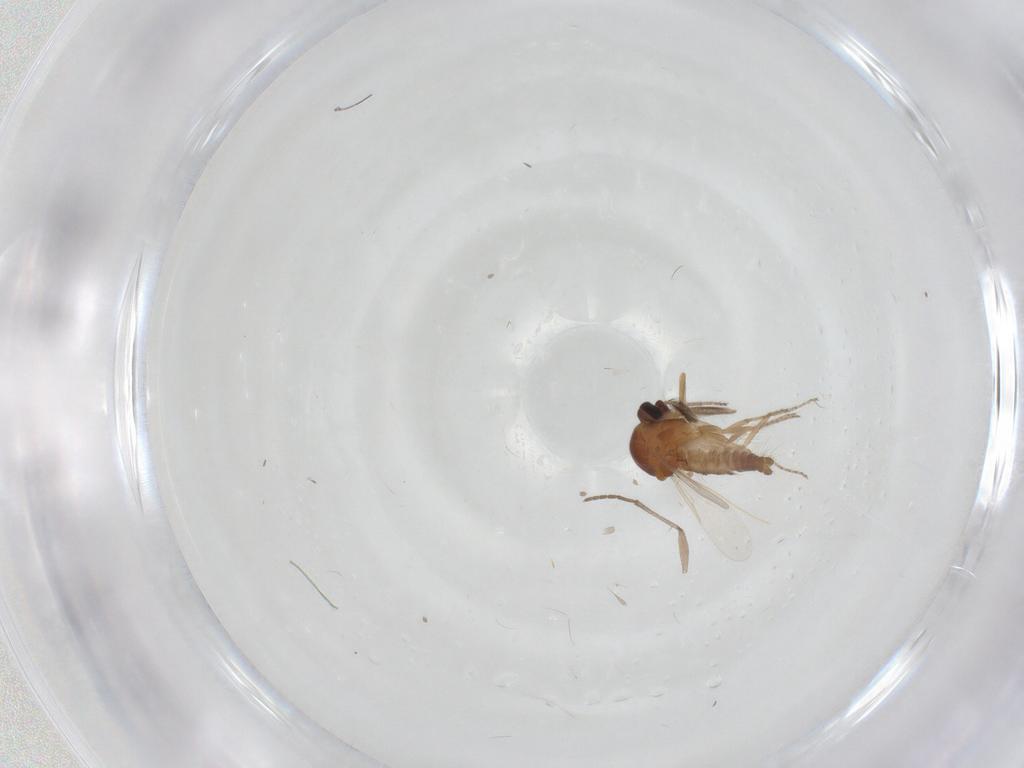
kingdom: Animalia
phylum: Arthropoda
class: Insecta
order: Diptera
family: Ceratopogonidae
